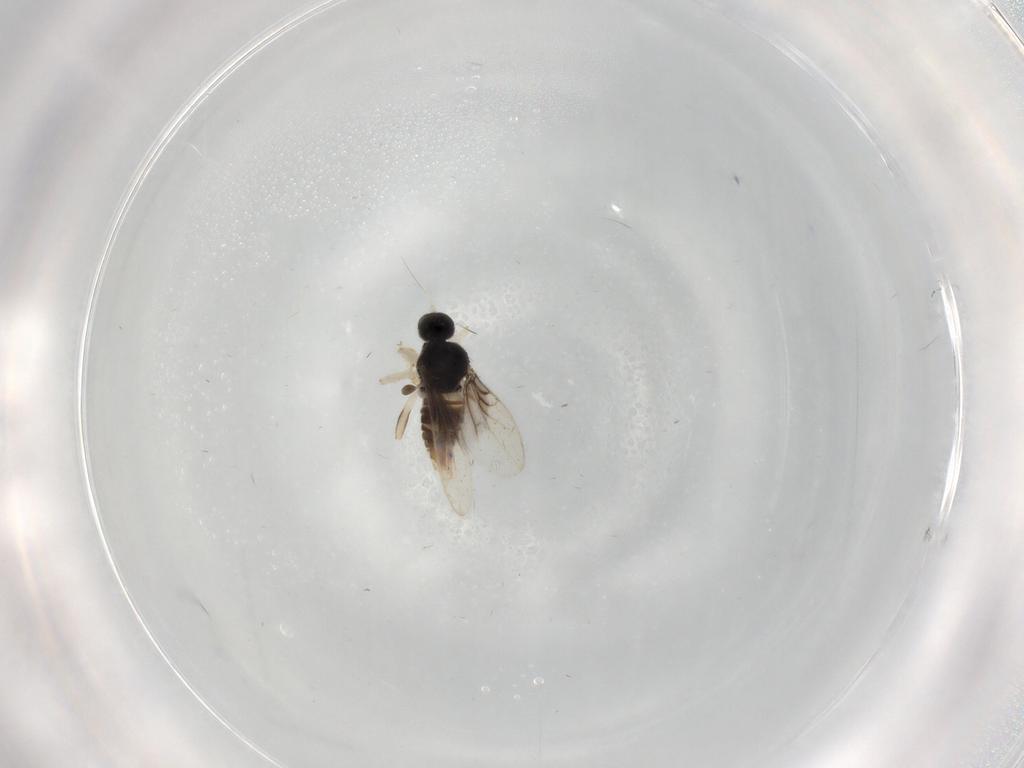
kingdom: Animalia
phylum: Arthropoda
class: Insecta
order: Diptera
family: Hybotidae
